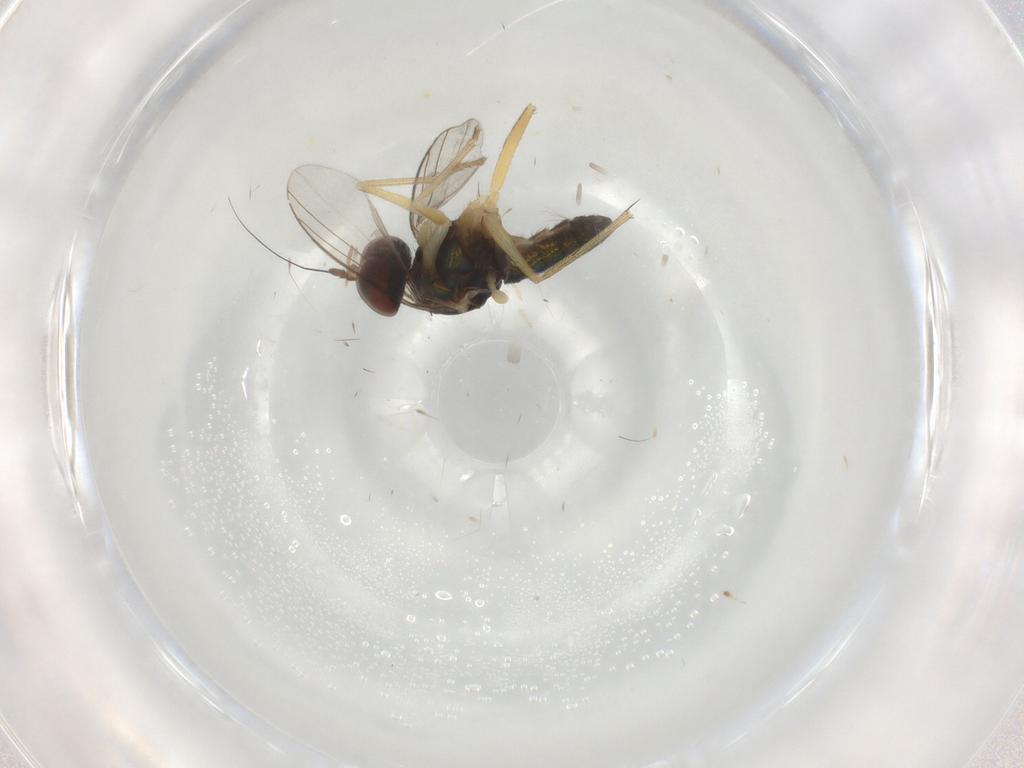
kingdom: Animalia
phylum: Arthropoda
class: Insecta
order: Diptera
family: Dolichopodidae
